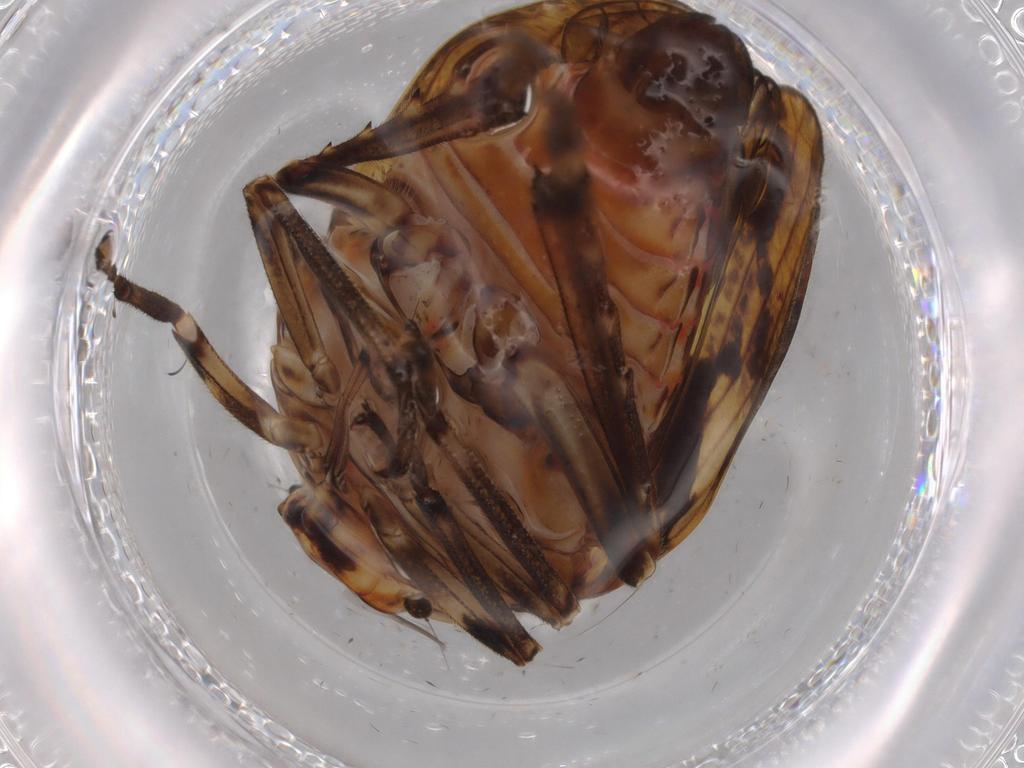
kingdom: Animalia
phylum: Arthropoda
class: Insecta
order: Hemiptera
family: Issidae
